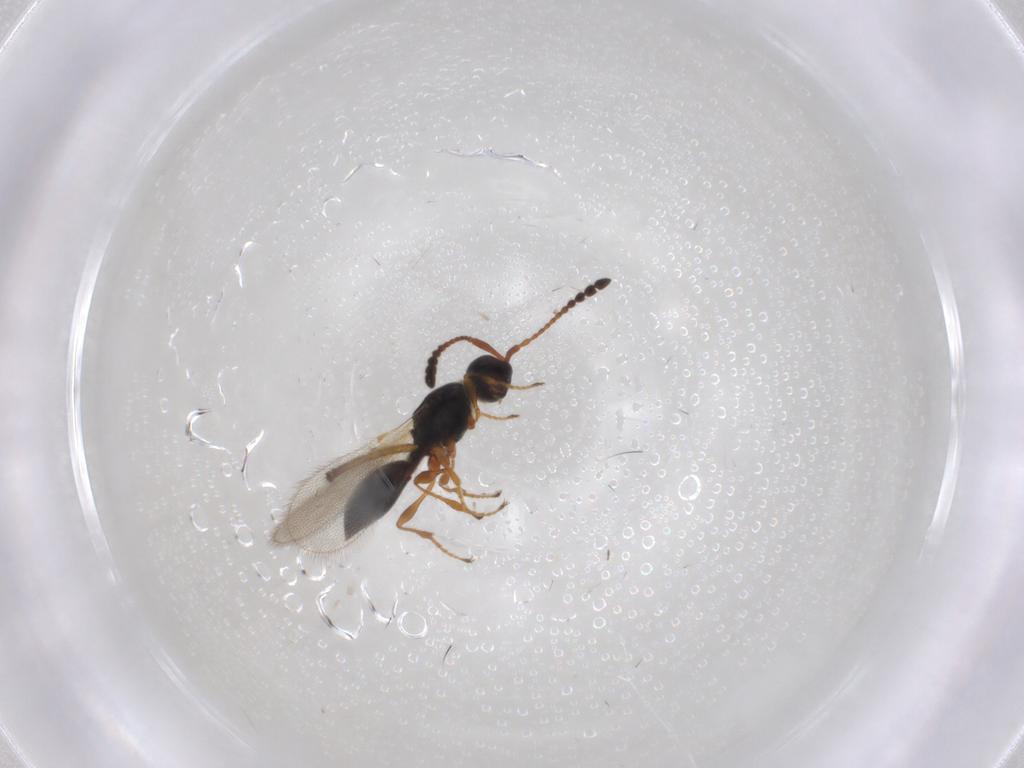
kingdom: Animalia
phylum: Arthropoda
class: Insecta
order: Hymenoptera
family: Diapriidae
